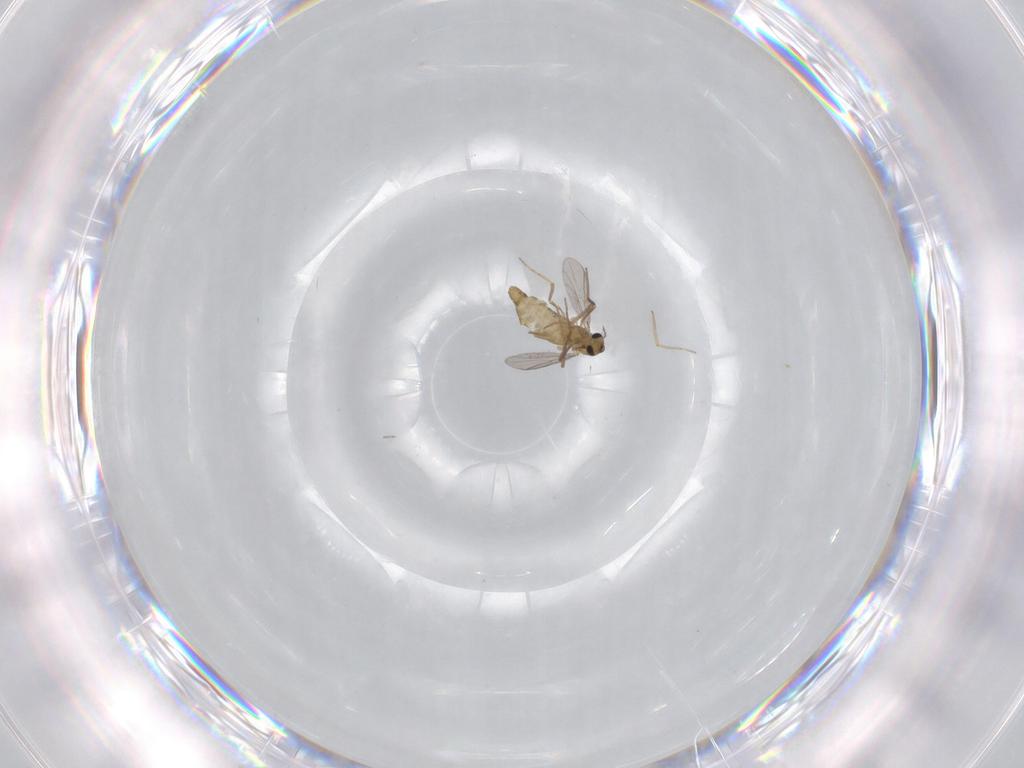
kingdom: Animalia
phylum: Arthropoda
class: Insecta
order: Diptera
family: Chironomidae
